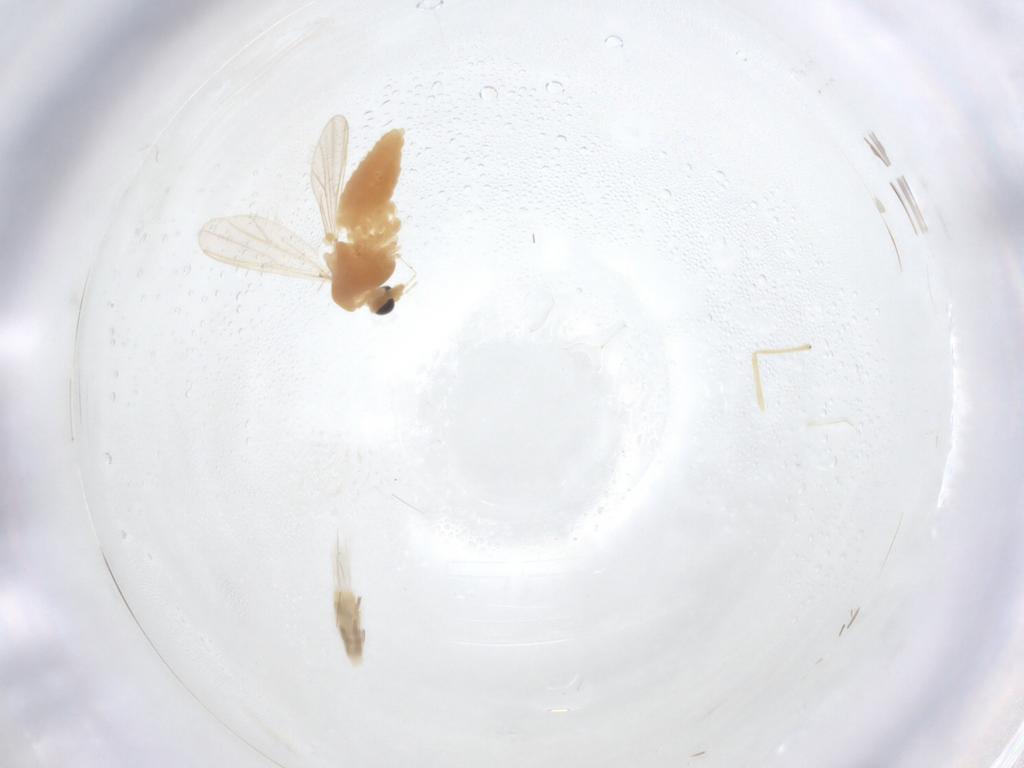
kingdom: Animalia
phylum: Arthropoda
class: Insecta
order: Diptera
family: Chironomidae
